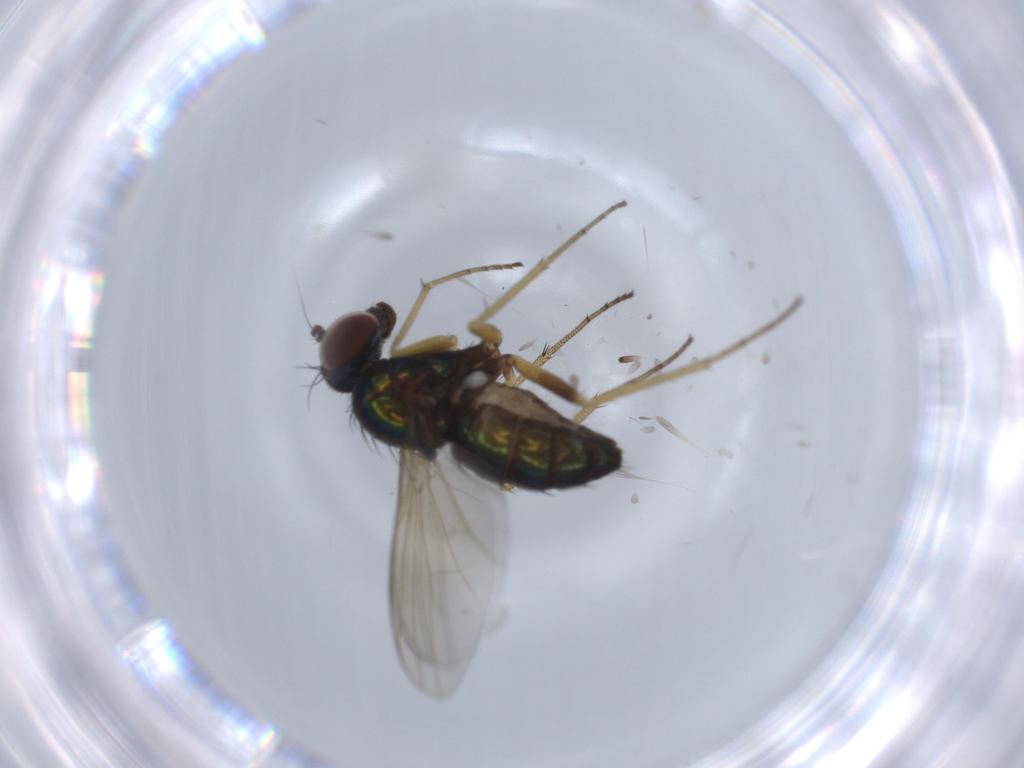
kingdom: Animalia
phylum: Arthropoda
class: Insecta
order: Diptera
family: Dolichopodidae
